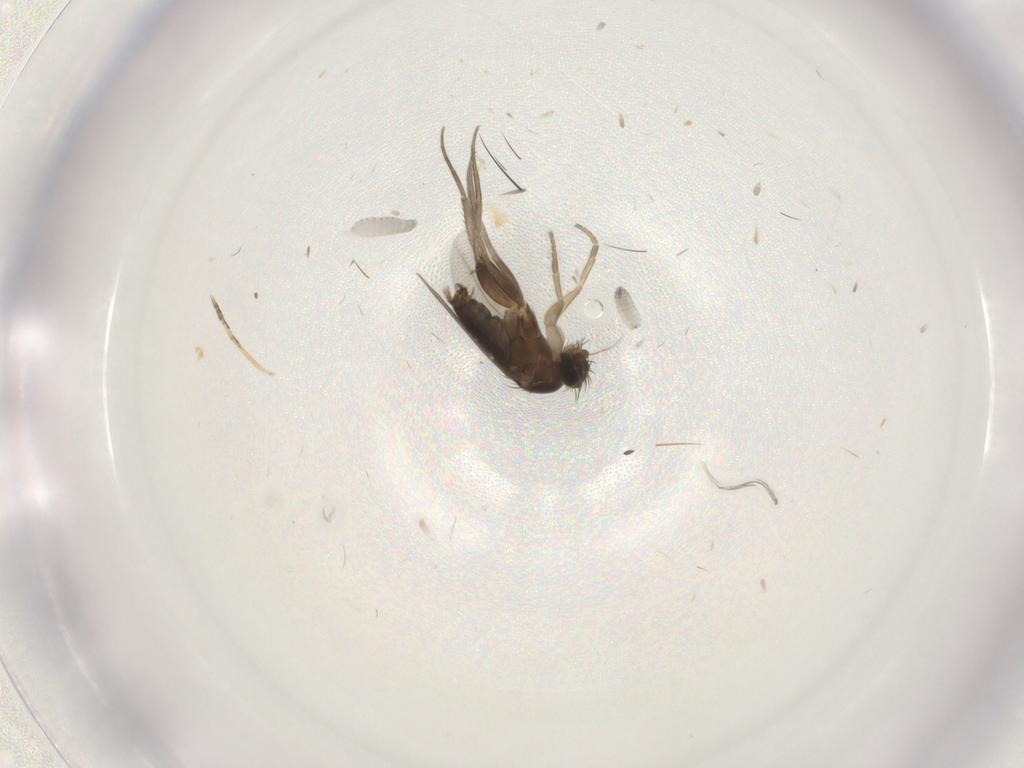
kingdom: Animalia
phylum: Arthropoda
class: Insecta
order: Diptera
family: Phoridae
